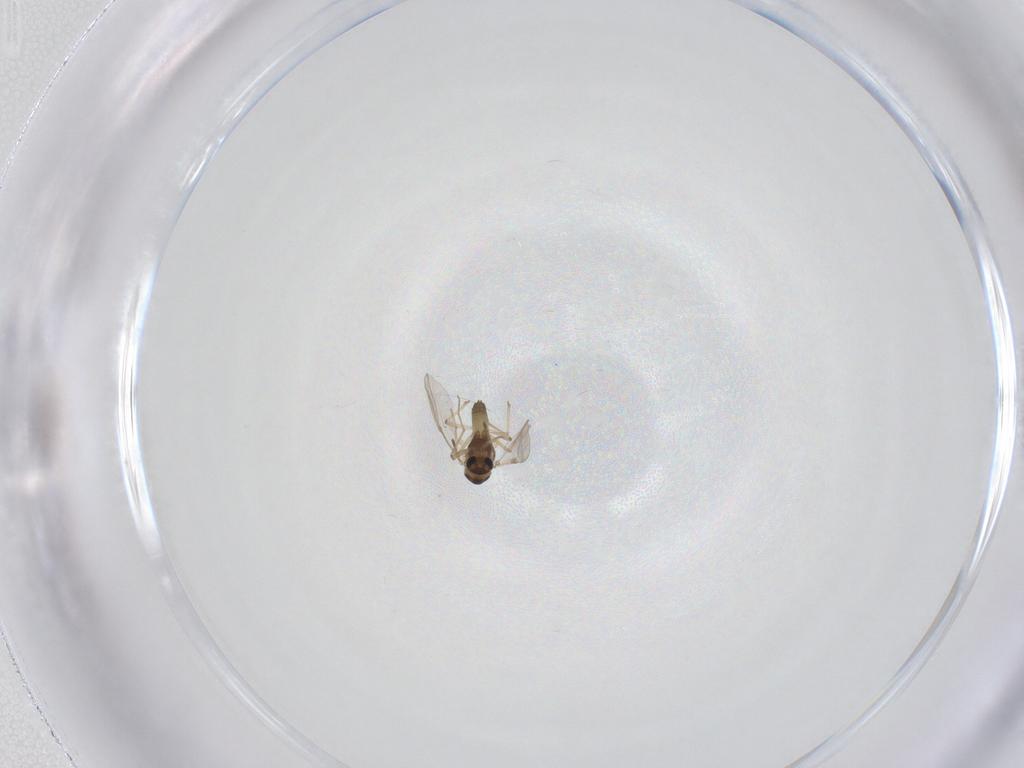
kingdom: Animalia
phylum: Arthropoda
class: Insecta
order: Diptera
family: Chironomidae
